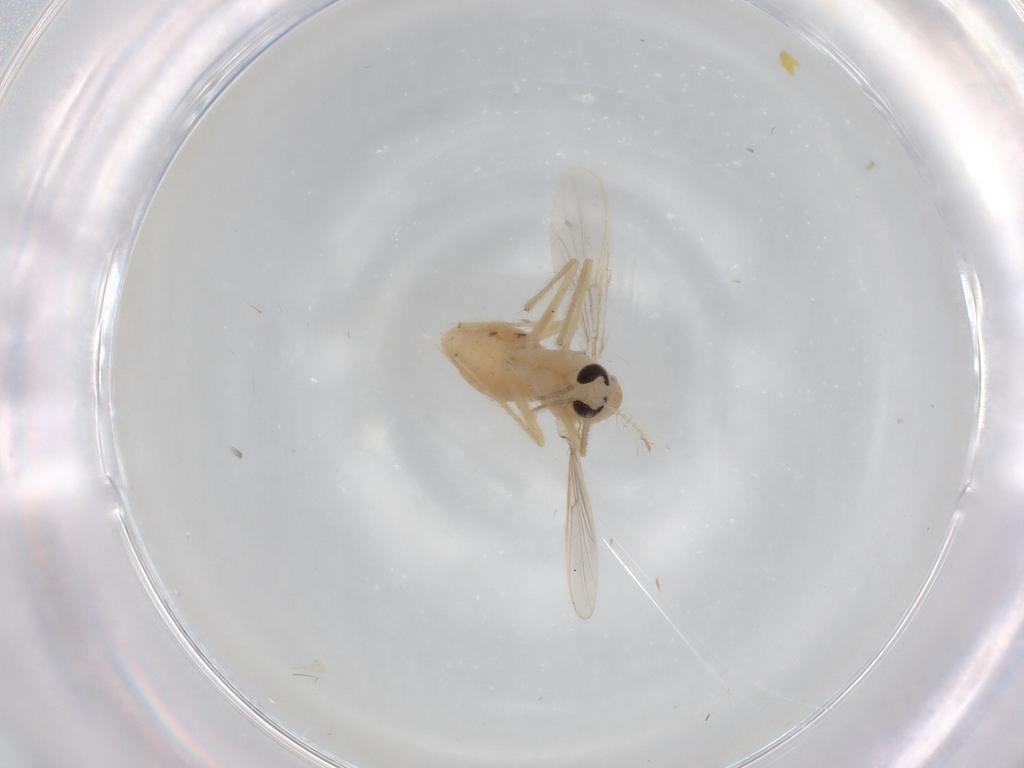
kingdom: Animalia
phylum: Arthropoda
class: Insecta
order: Diptera
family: Chironomidae
